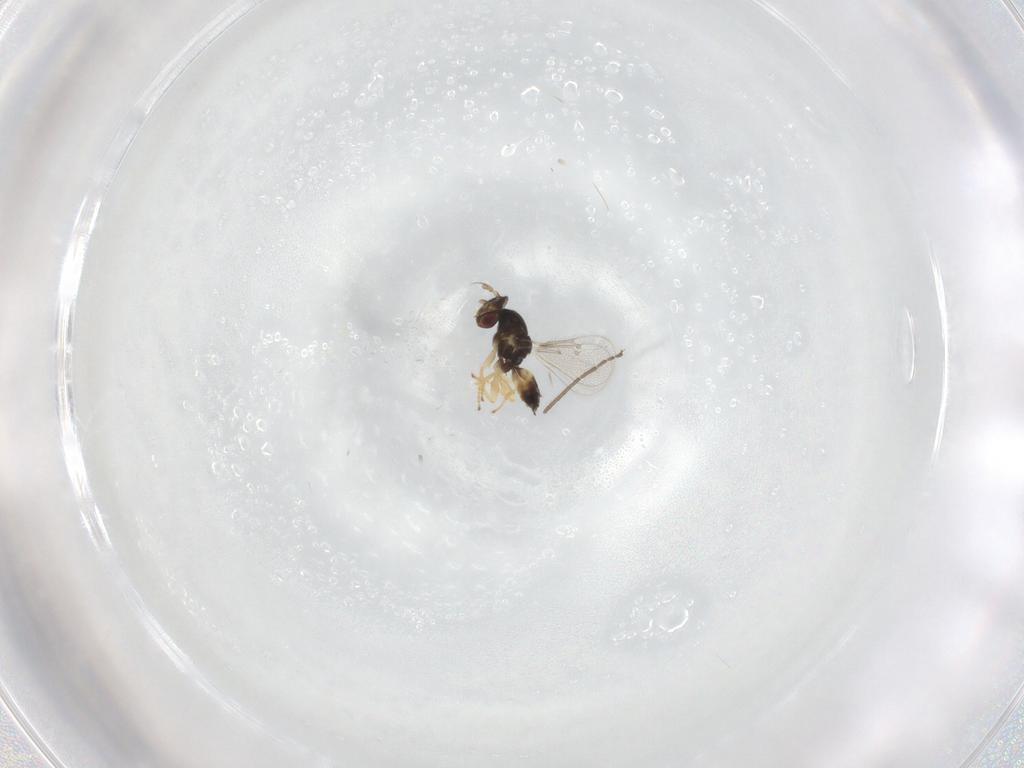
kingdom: Animalia
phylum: Arthropoda
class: Insecta
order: Hymenoptera
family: Eulophidae
